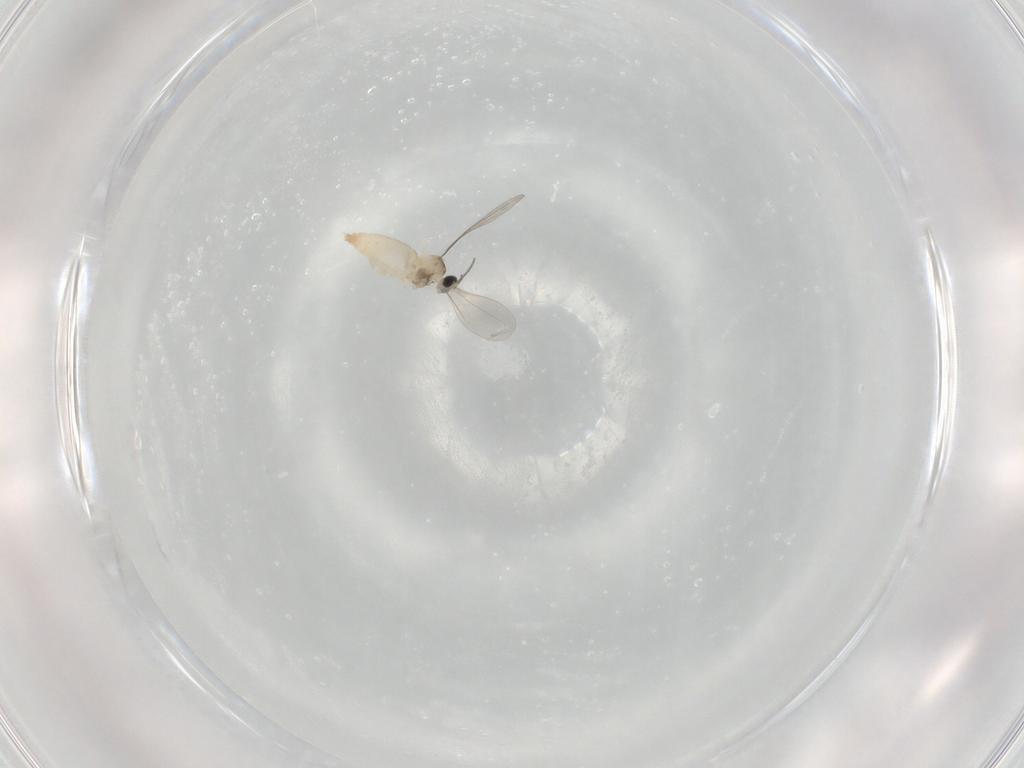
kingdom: Animalia
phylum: Arthropoda
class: Insecta
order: Diptera
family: Cecidomyiidae
